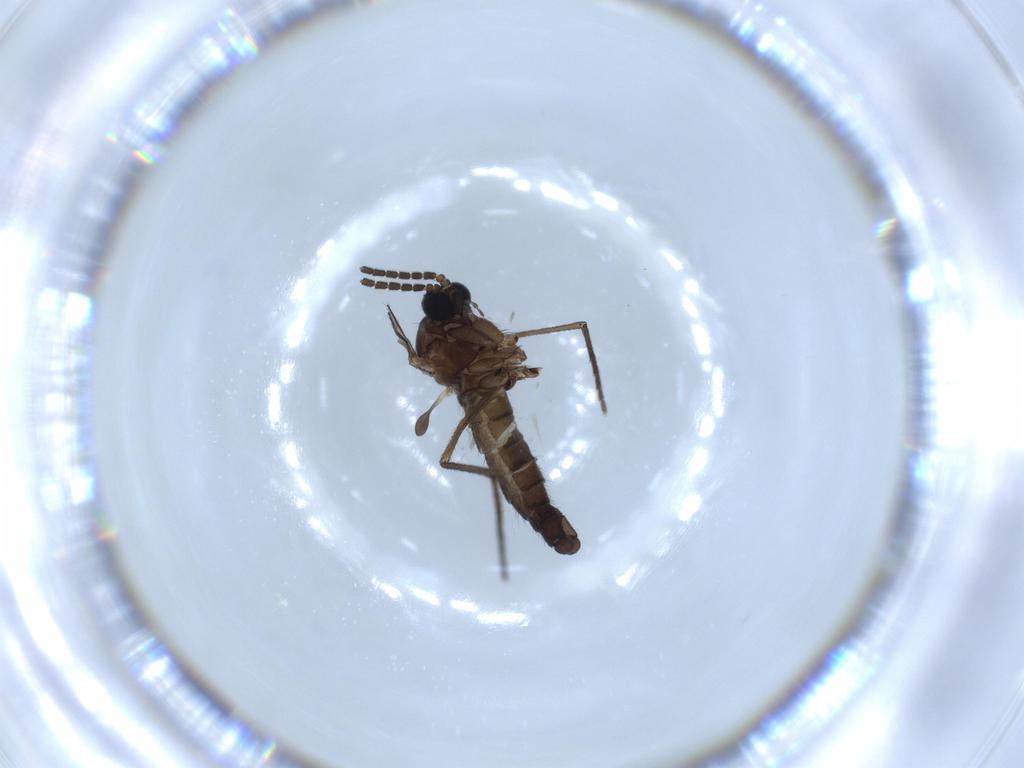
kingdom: Animalia
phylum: Arthropoda
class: Insecta
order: Diptera
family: Sciaridae
